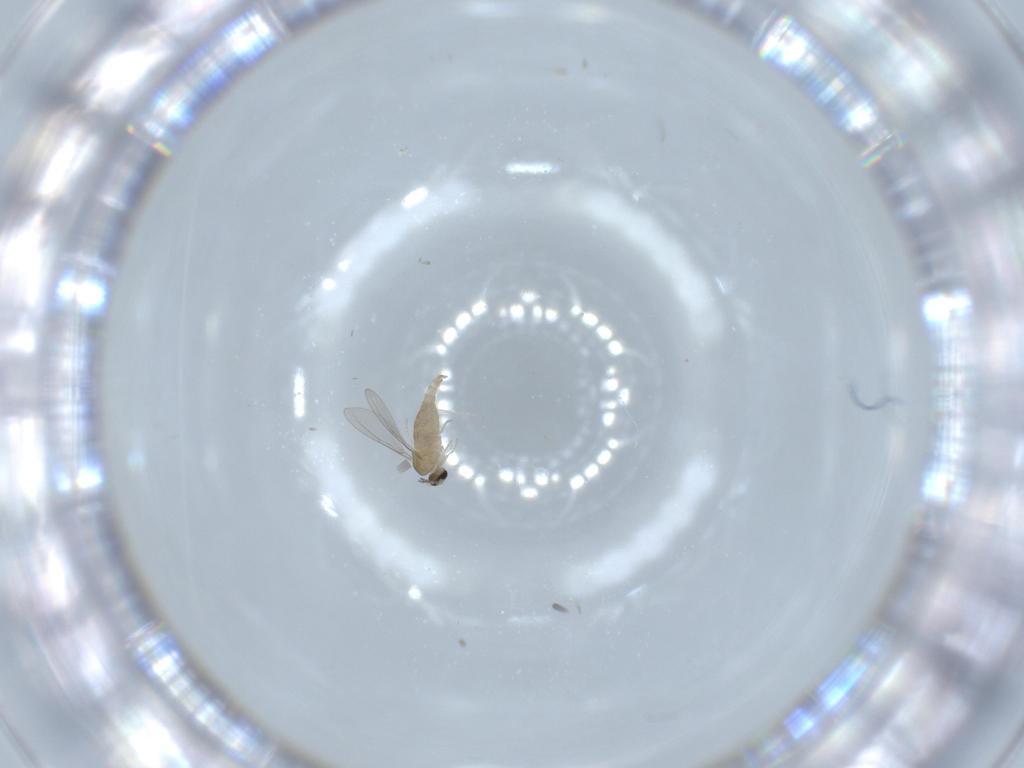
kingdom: Animalia
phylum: Arthropoda
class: Insecta
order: Diptera
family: Cecidomyiidae
